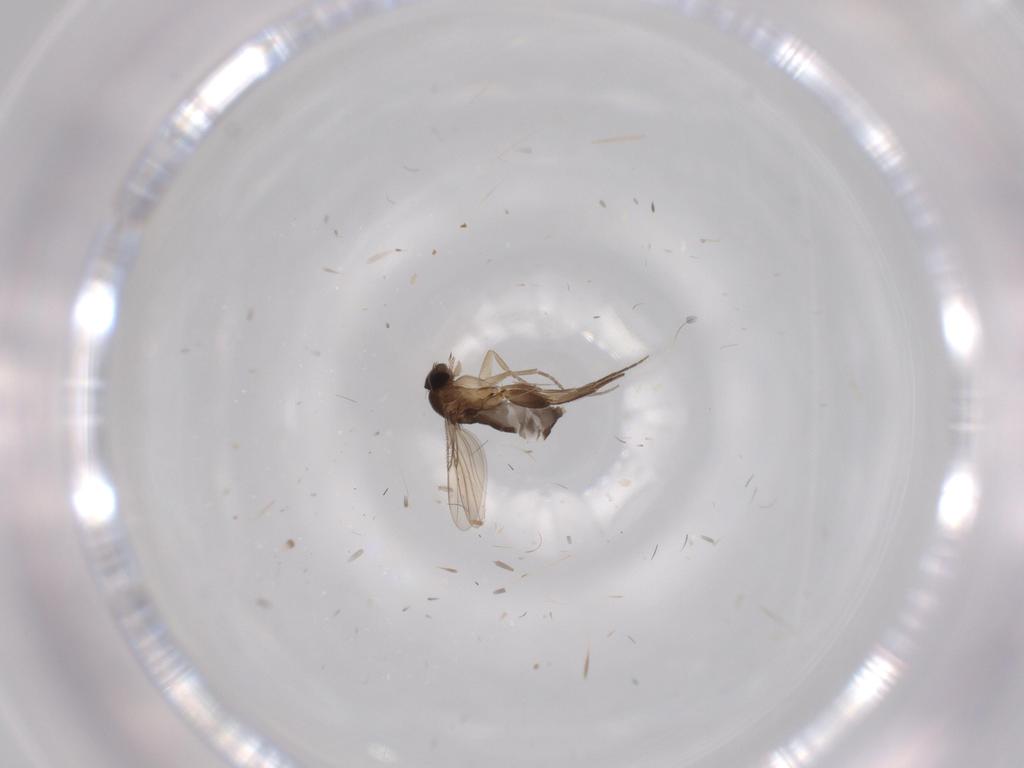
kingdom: Animalia
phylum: Arthropoda
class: Insecta
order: Diptera
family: Phoridae
